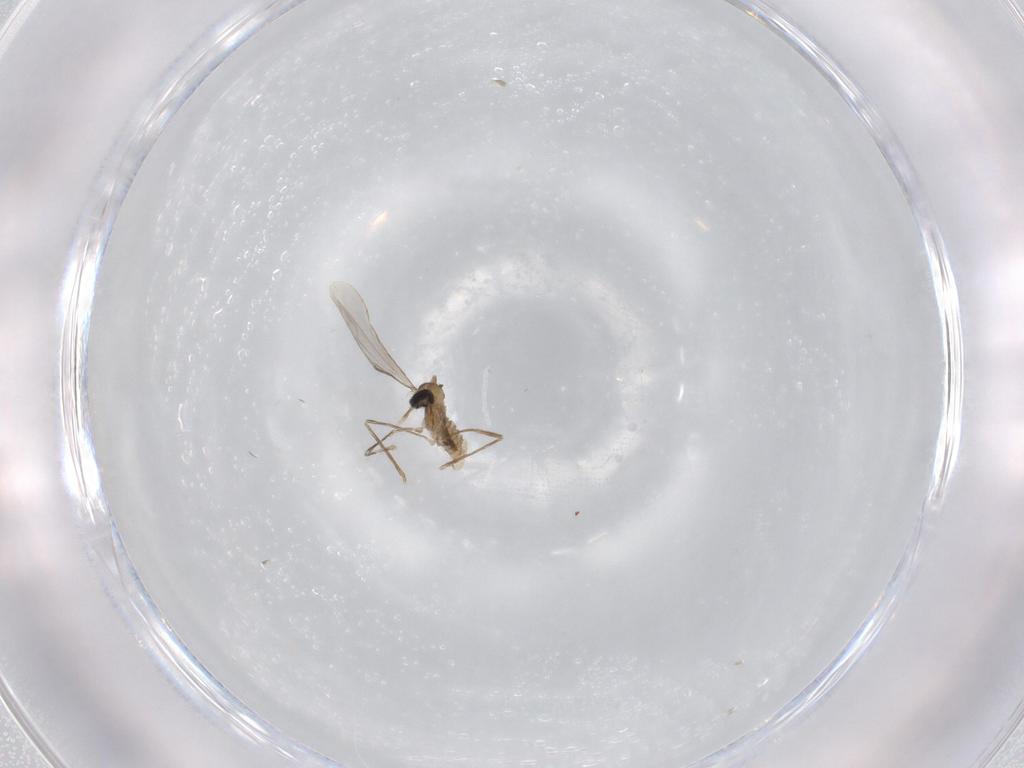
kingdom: Animalia
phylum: Arthropoda
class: Insecta
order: Diptera
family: Cecidomyiidae
